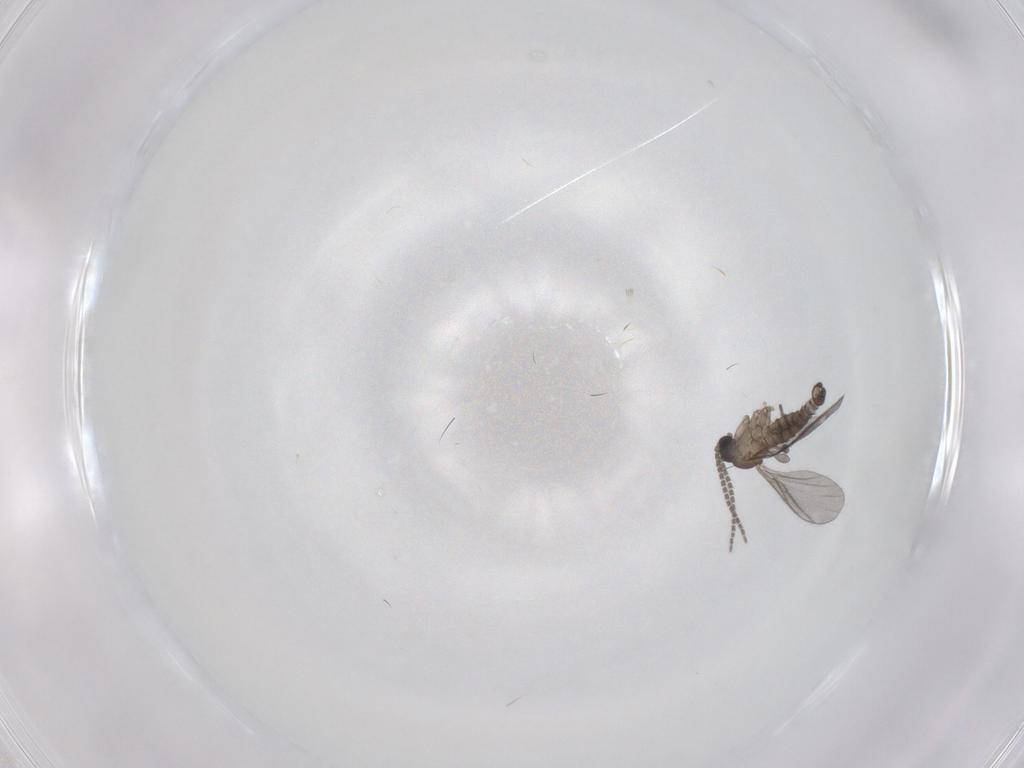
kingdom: Animalia
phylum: Arthropoda
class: Insecta
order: Diptera
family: Sciaridae
